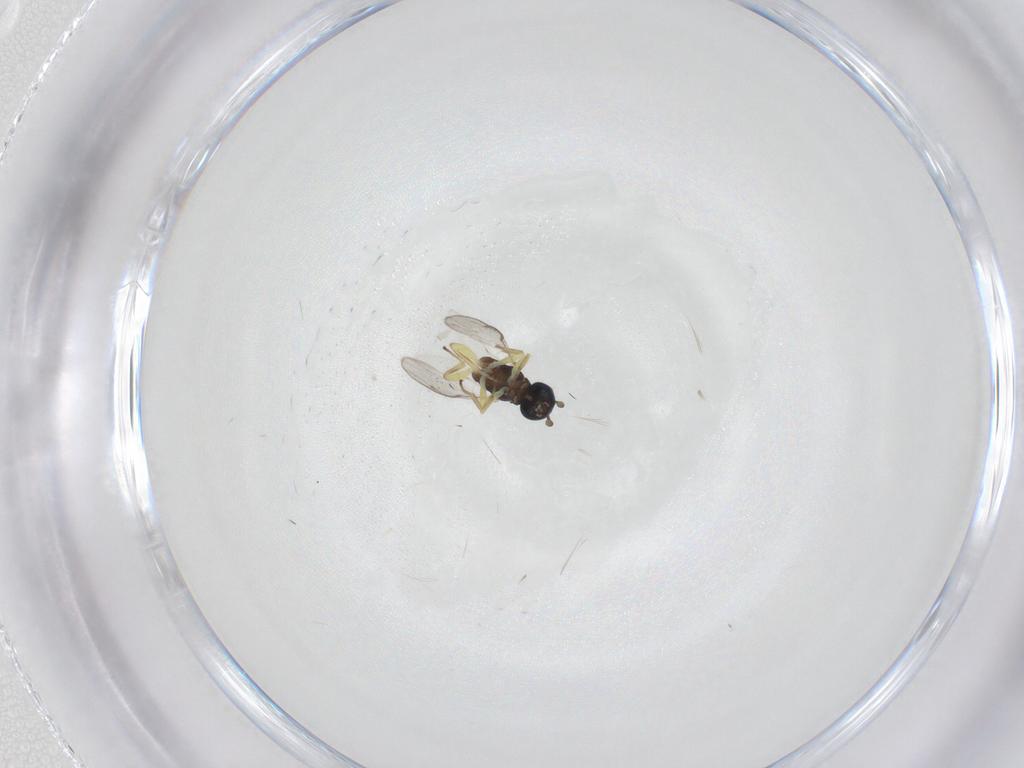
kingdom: Animalia
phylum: Arthropoda
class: Insecta
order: Hymenoptera
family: Eupelmidae
